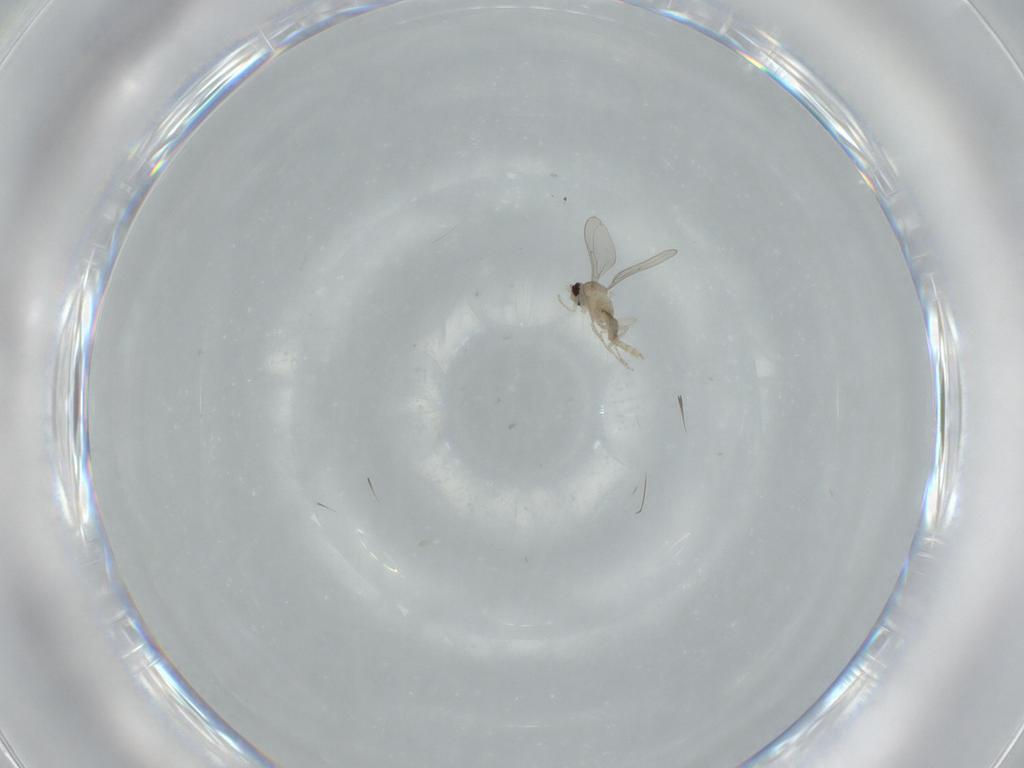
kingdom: Animalia
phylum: Arthropoda
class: Insecta
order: Diptera
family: Cecidomyiidae
